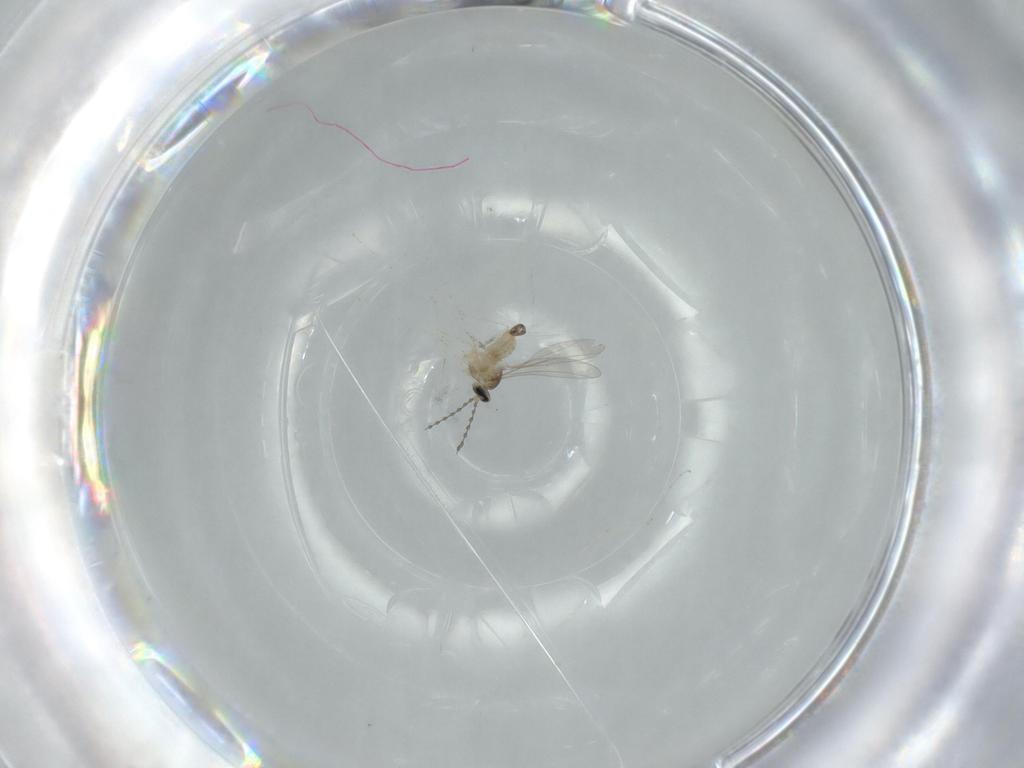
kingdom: Animalia
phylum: Arthropoda
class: Insecta
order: Diptera
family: Cecidomyiidae
